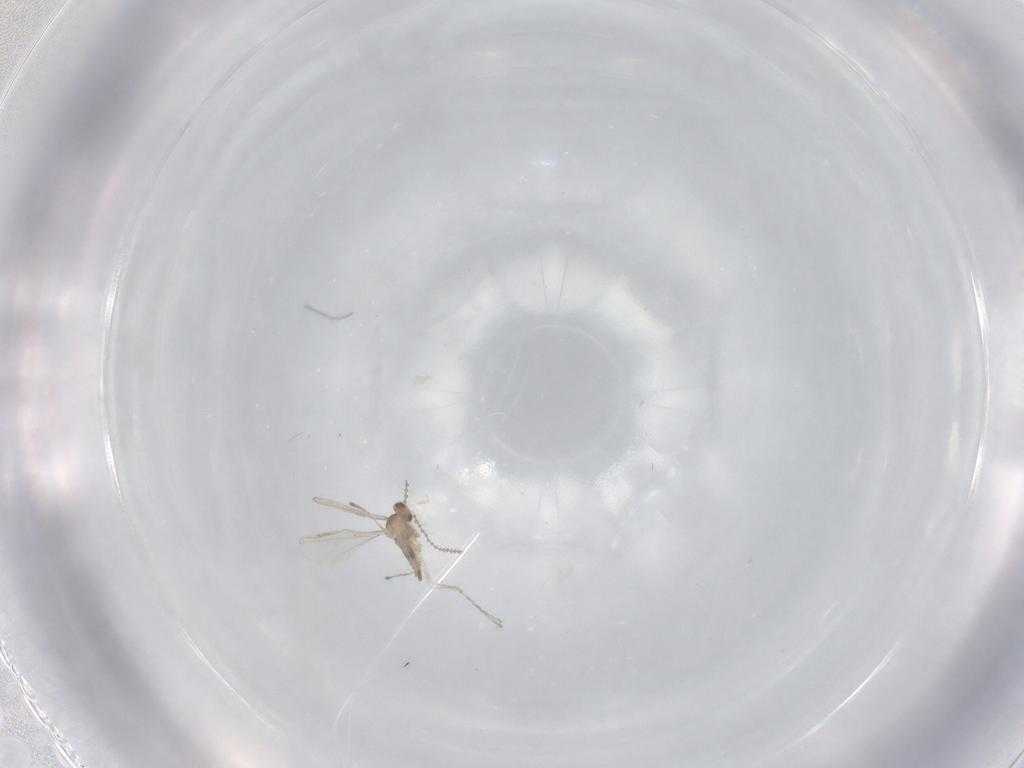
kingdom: Animalia
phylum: Arthropoda
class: Insecta
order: Diptera
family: Cecidomyiidae
